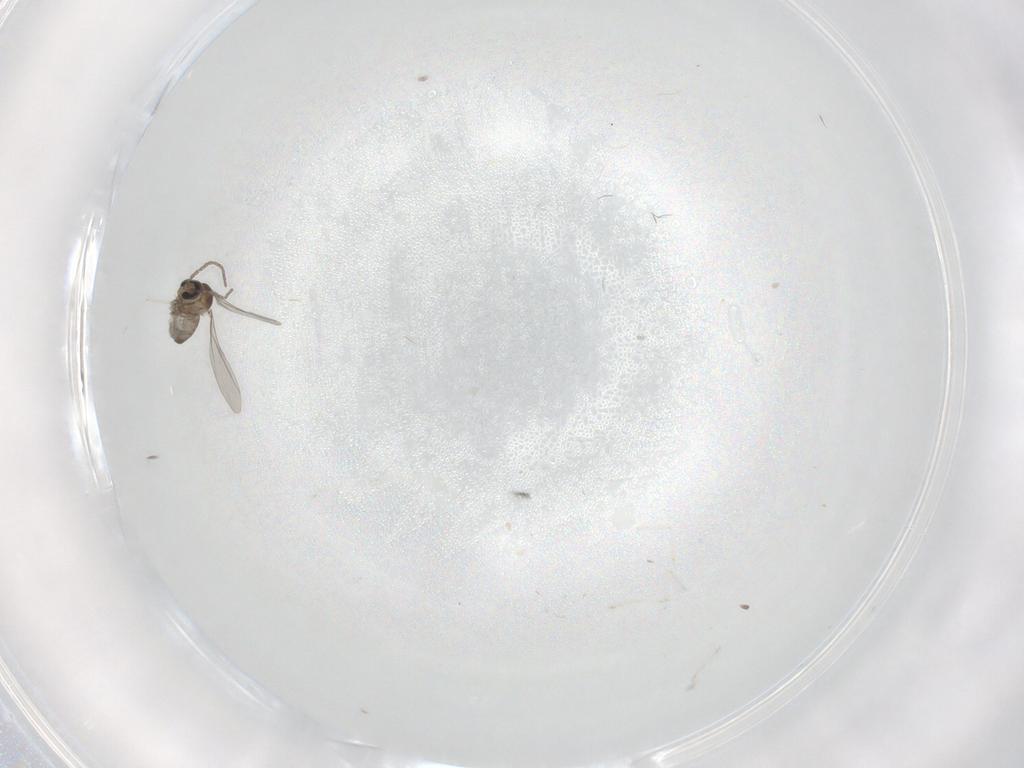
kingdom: Animalia
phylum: Arthropoda
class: Insecta
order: Diptera
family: Cecidomyiidae
